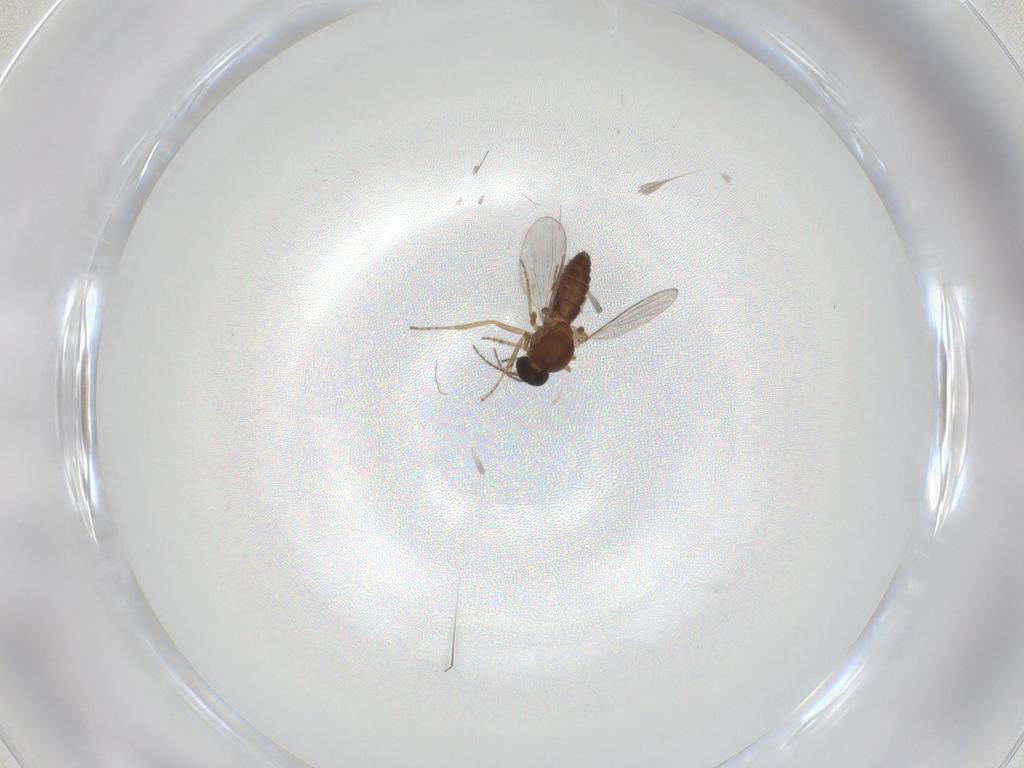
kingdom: Animalia
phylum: Arthropoda
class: Insecta
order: Diptera
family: Ceratopogonidae
